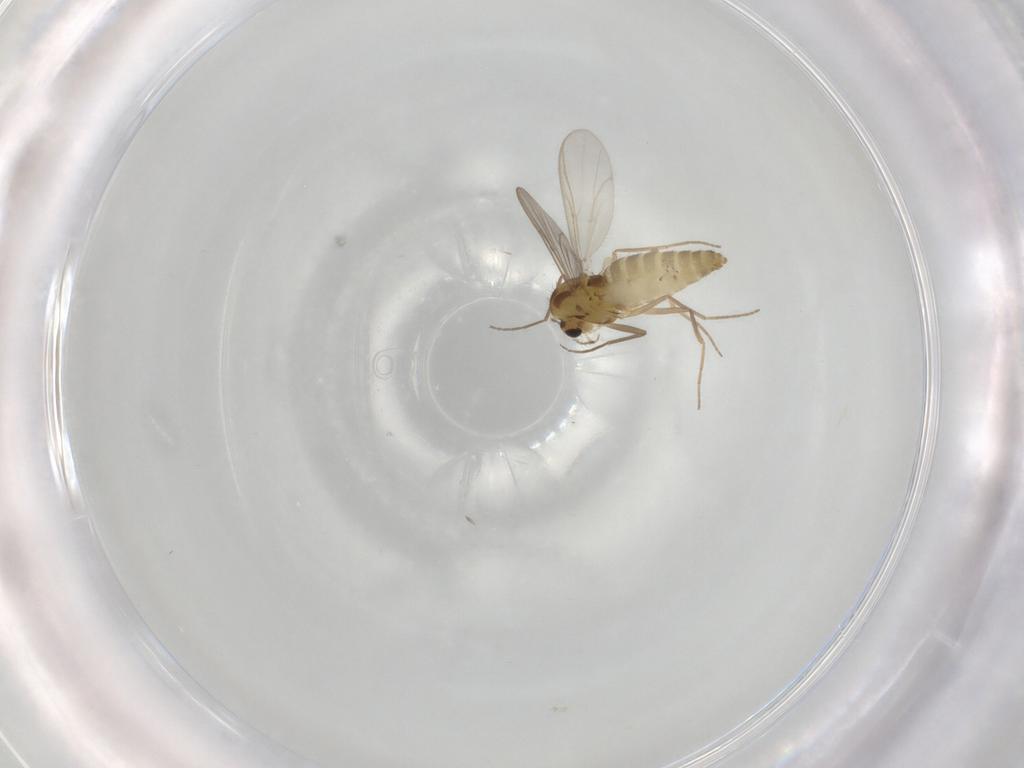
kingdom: Animalia
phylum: Arthropoda
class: Insecta
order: Diptera
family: Chironomidae
